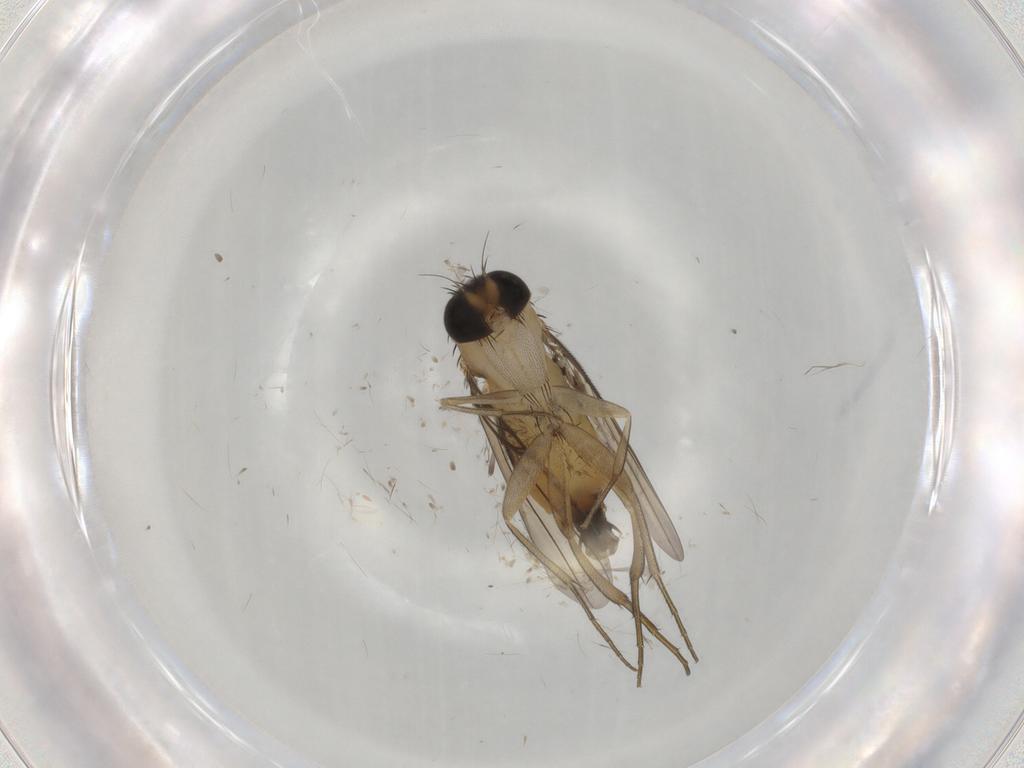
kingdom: Animalia
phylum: Arthropoda
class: Insecta
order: Diptera
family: Phoridae
